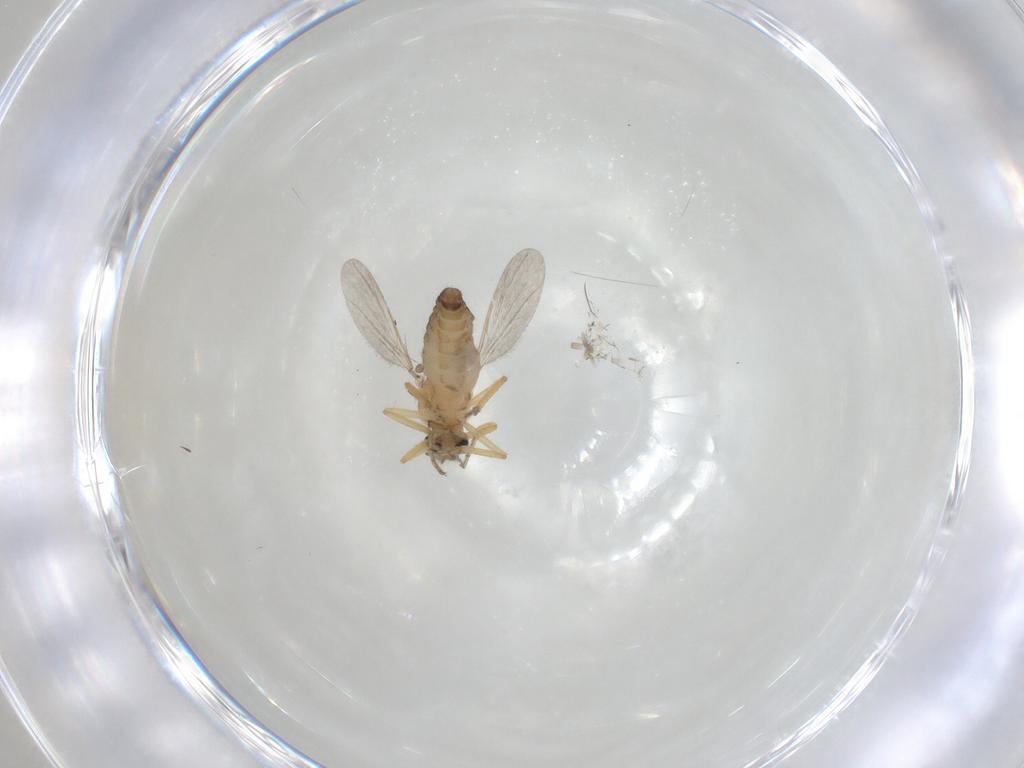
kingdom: Animalia
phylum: Arthropoda
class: Insecta
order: Diptera
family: Ceratopogonidae
